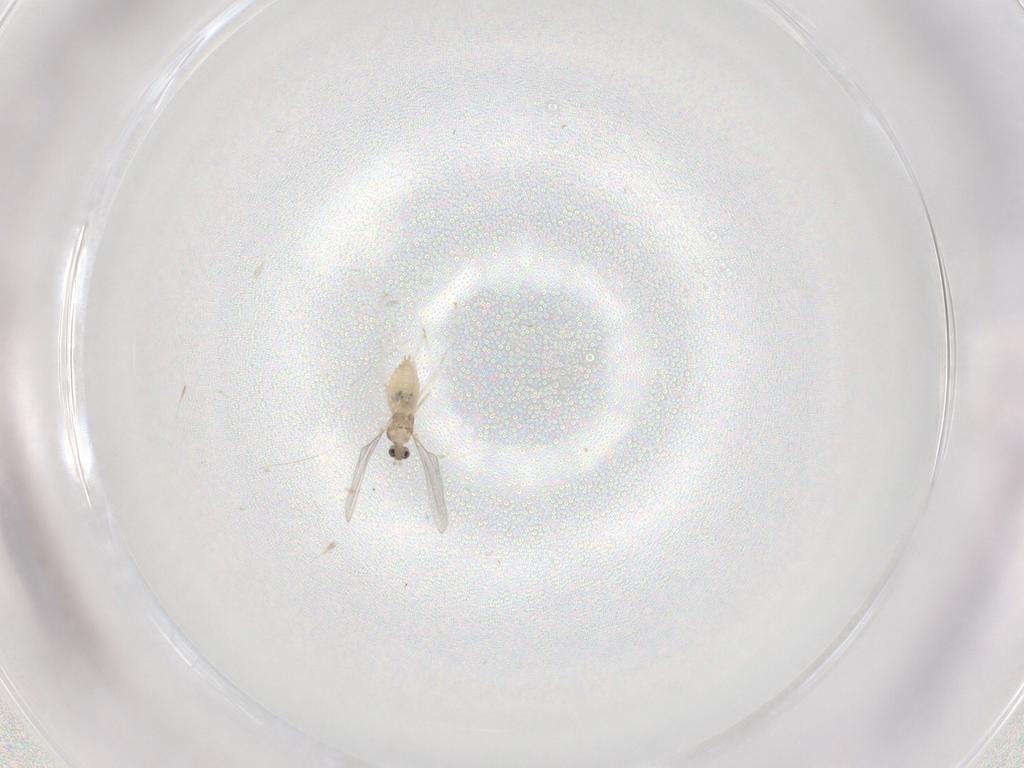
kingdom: Animalia
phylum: Arthropoda
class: Insecta
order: Diptera
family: Cecidomyiidae
